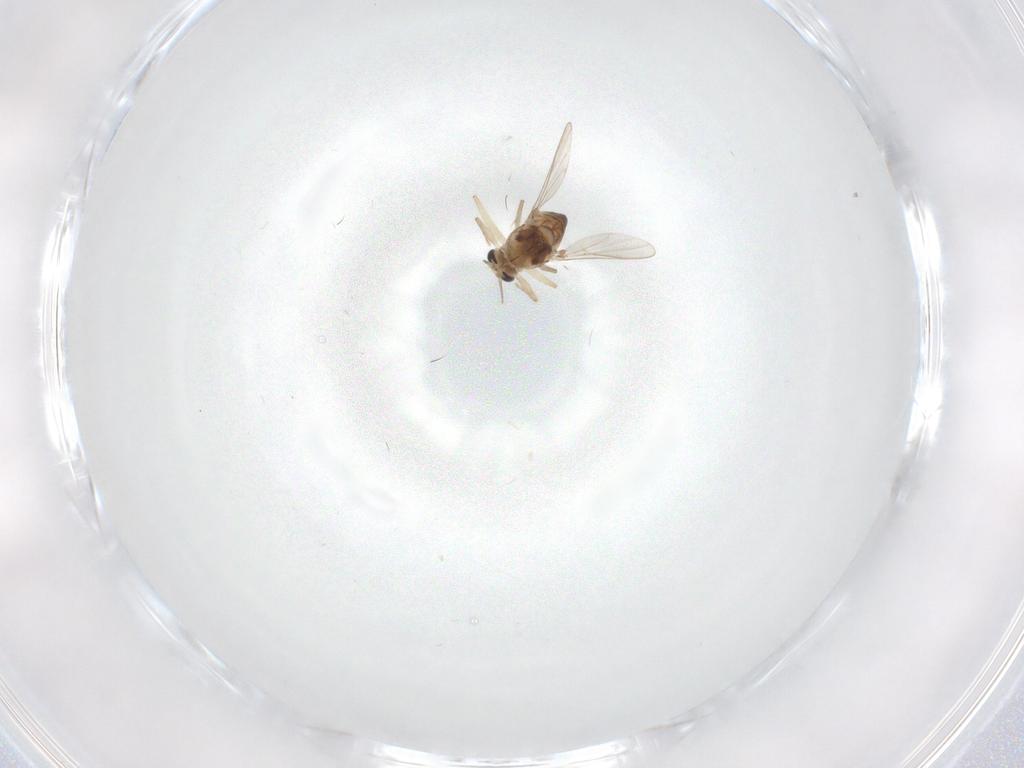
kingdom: Animalia
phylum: Arthropoda
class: Insecta
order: Diptera
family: Chironomidae
